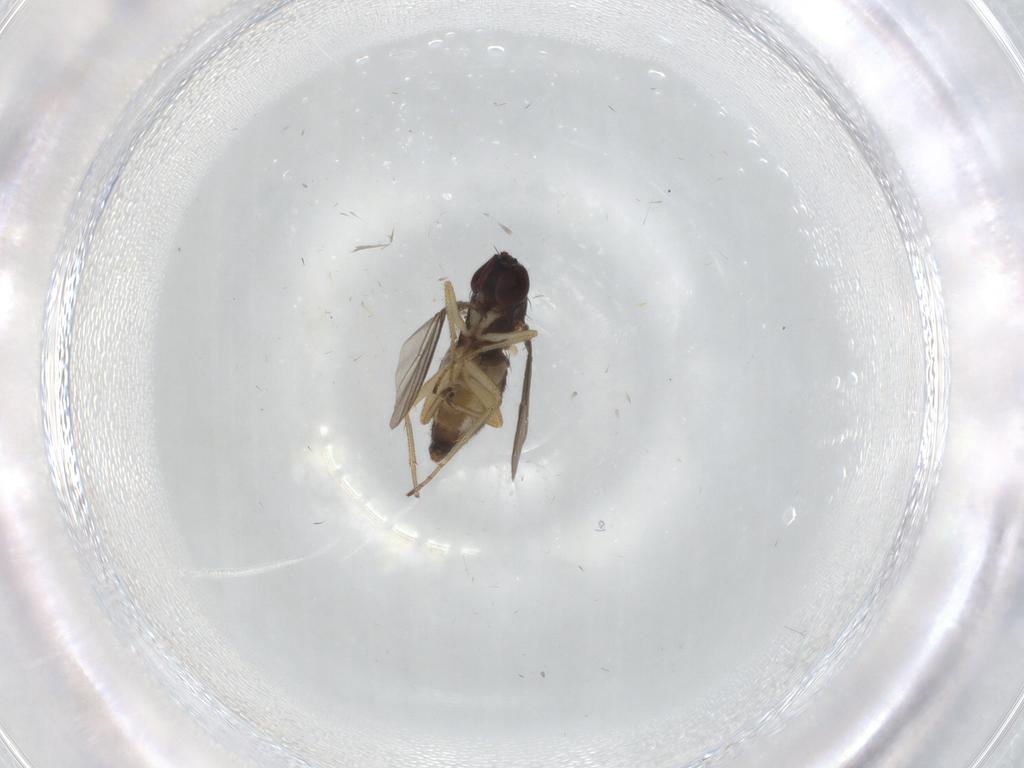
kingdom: Animalia
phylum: Arthropoda
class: Insecta
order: Diptera
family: Dolichopodidae
